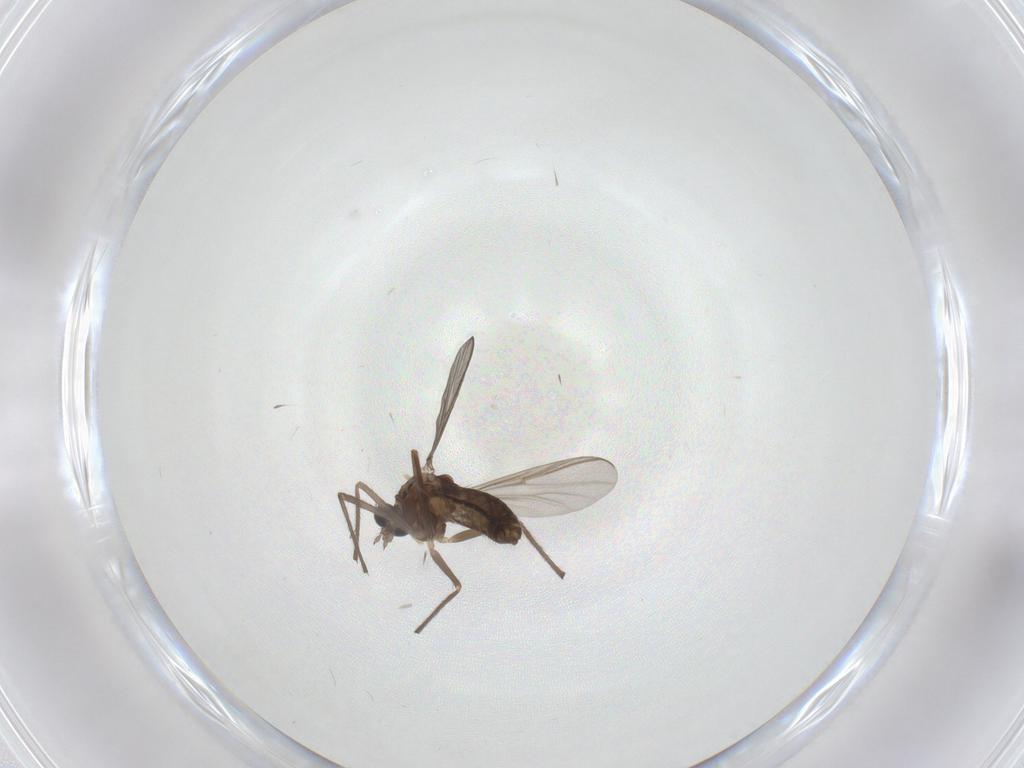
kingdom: Animalia
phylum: Arthropoda
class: Insecta
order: Diptera
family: Chironomidae
